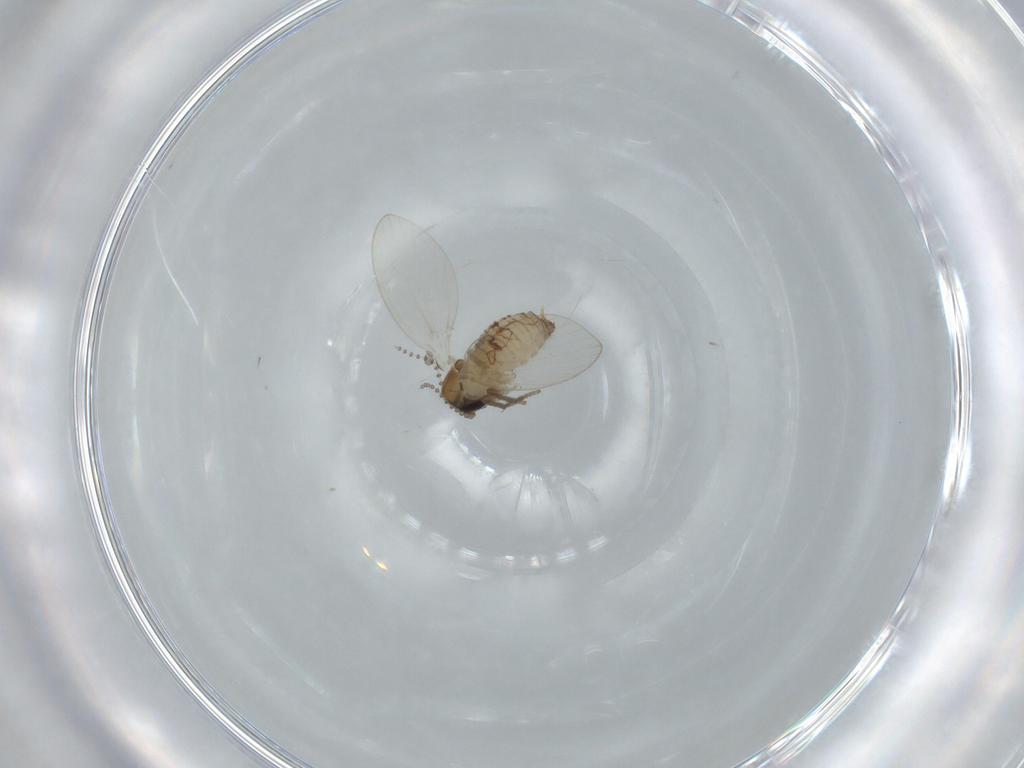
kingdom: Animalia
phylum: Arthropoda
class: Insecta
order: Diptera
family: Psychodidae
